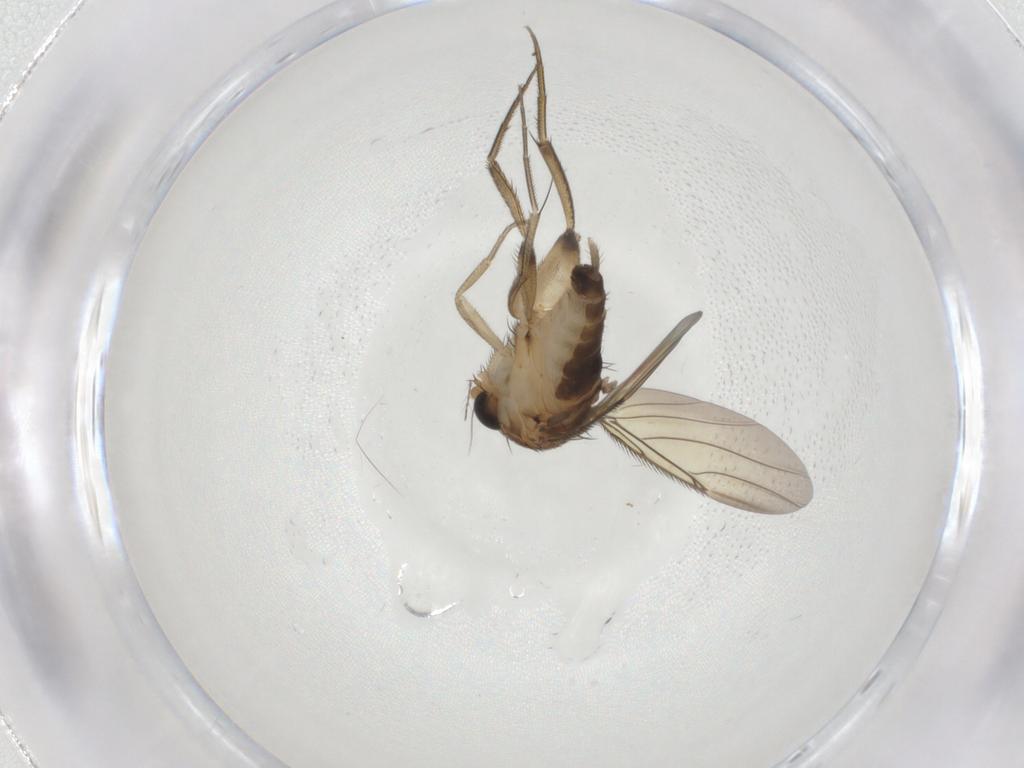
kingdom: Animalia
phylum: Arthropoda
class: Insecta
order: Diptera
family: Phoridae
